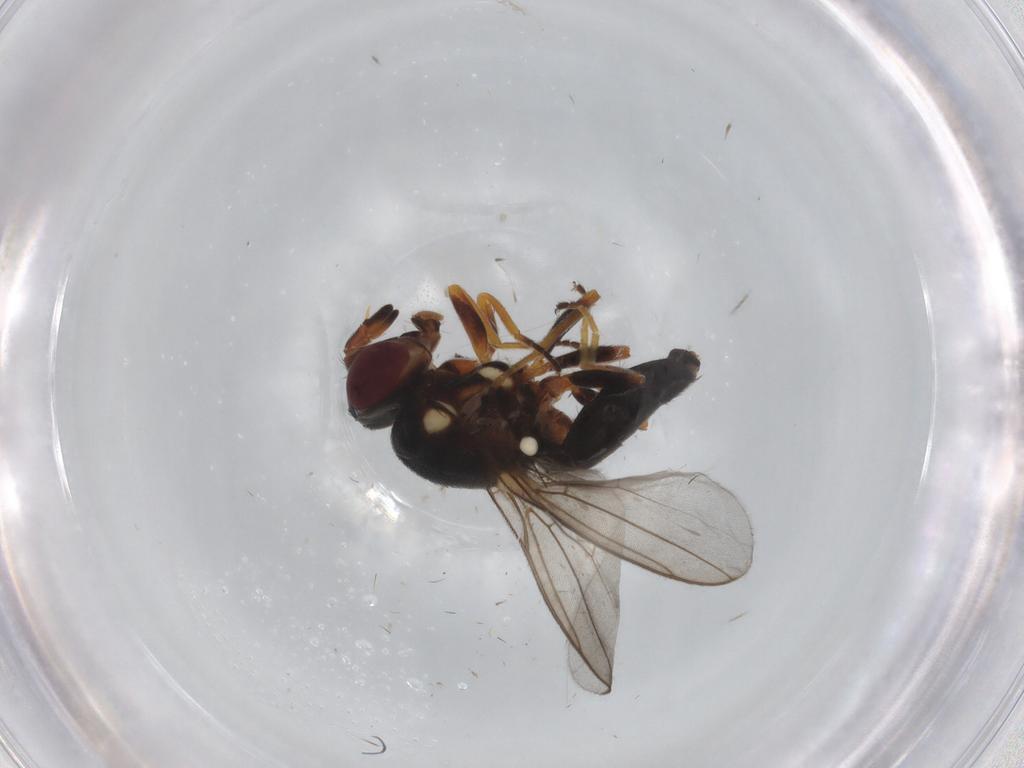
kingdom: Animalia
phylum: Arthropoda
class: Insecta
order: Diptera
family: Chloropidae
